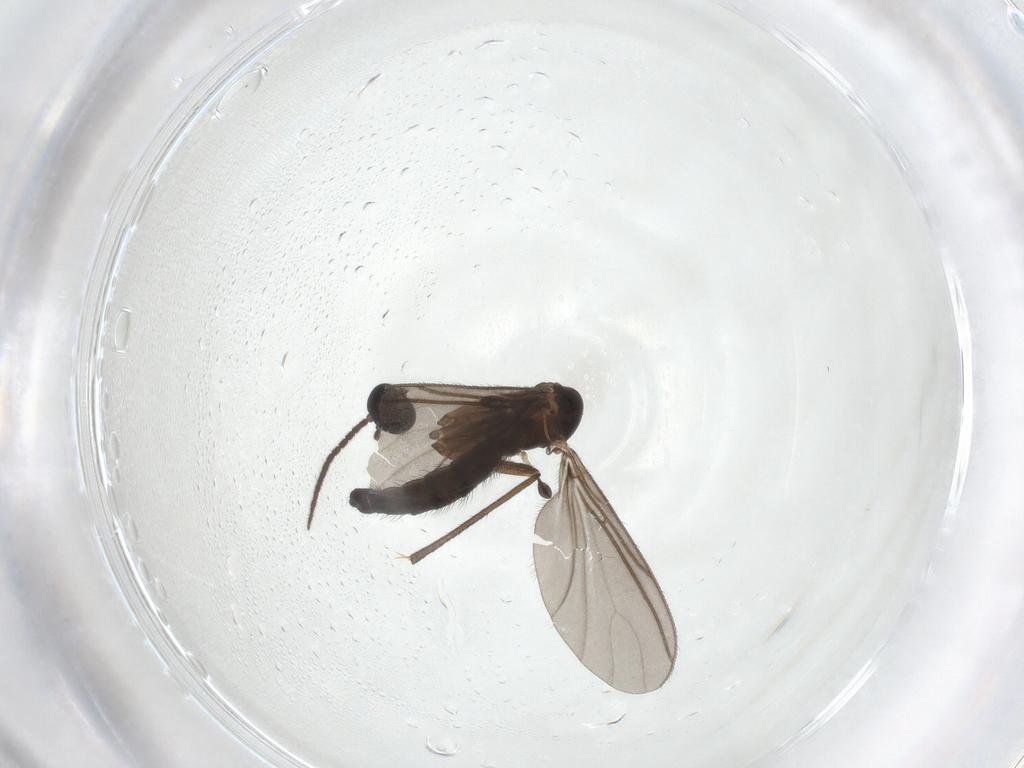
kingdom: Animalia
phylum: Arthropoda
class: Insecta
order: Diptera
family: Sciaridae
